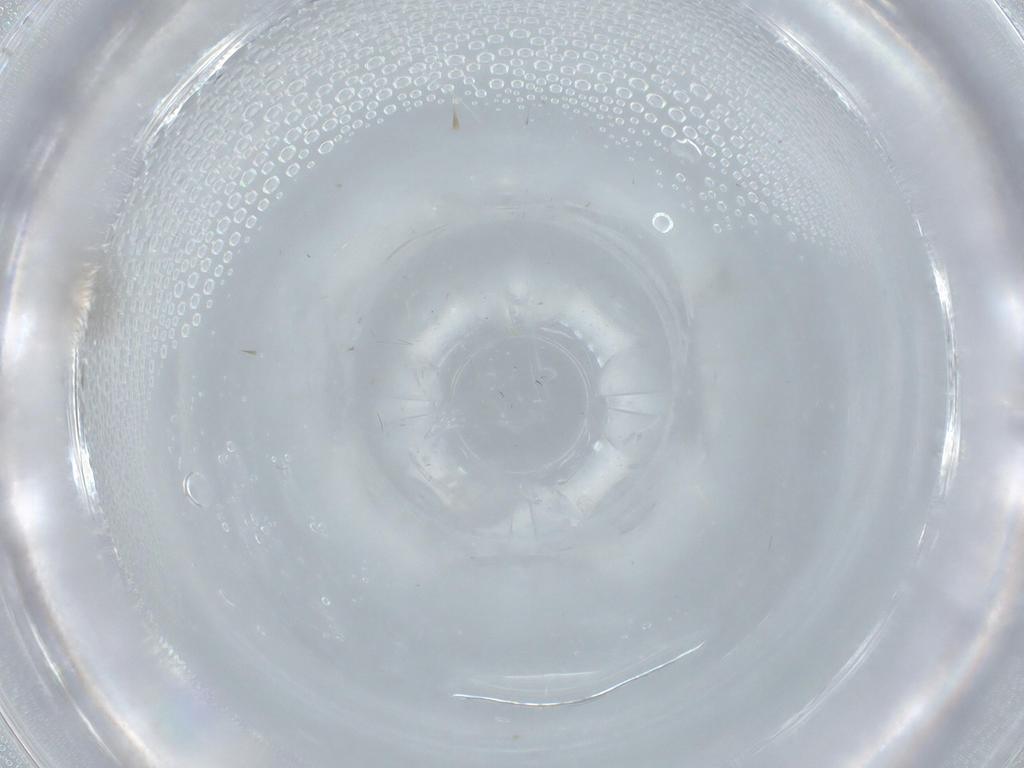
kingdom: Animalia
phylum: Arthropoda
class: Insecta
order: Diptera
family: Cecidomyiidae
